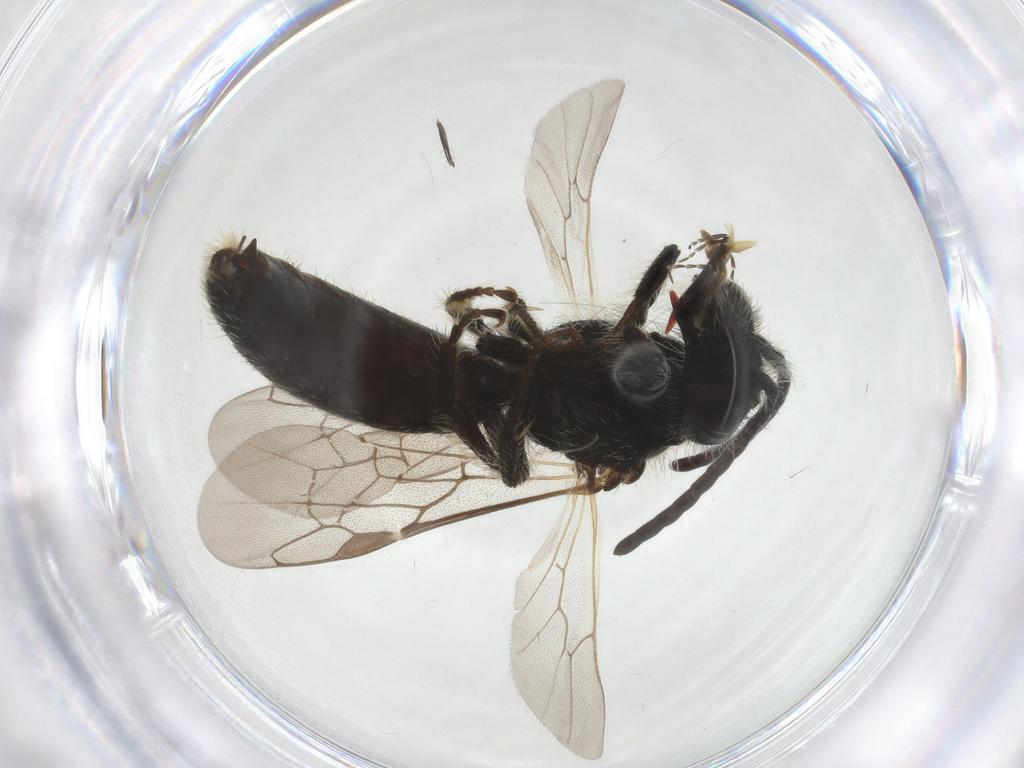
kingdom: Animalia
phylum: Arthropoda
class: Insecta
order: Hymenoptera
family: Andrenidae
